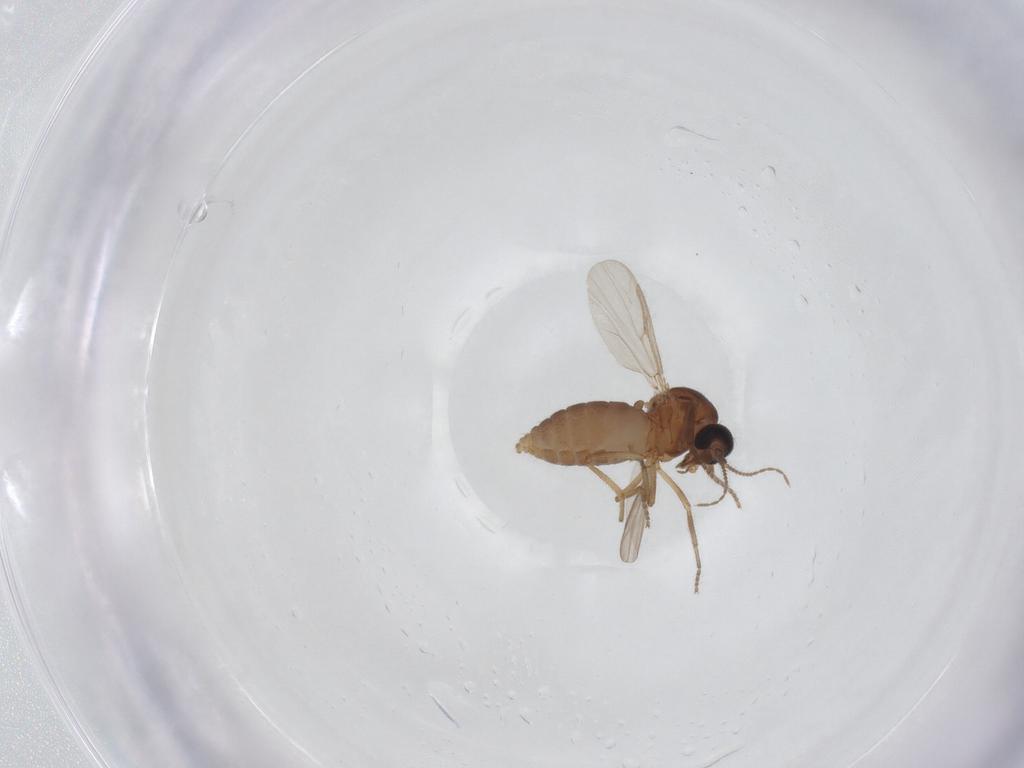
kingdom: Animalia
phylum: Arthropoda
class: Insecta
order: Diptera
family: Ceratopogonidae
